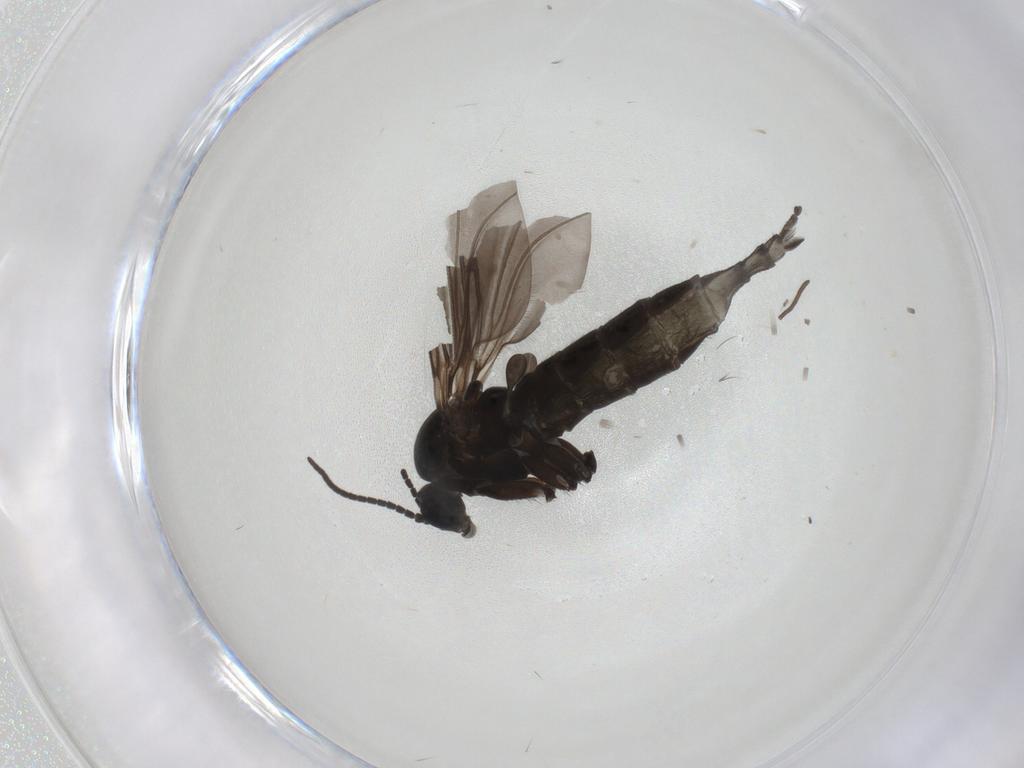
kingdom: Animalia
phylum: Arthropoda
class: Insecta
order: Diptera
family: Sciaridae
